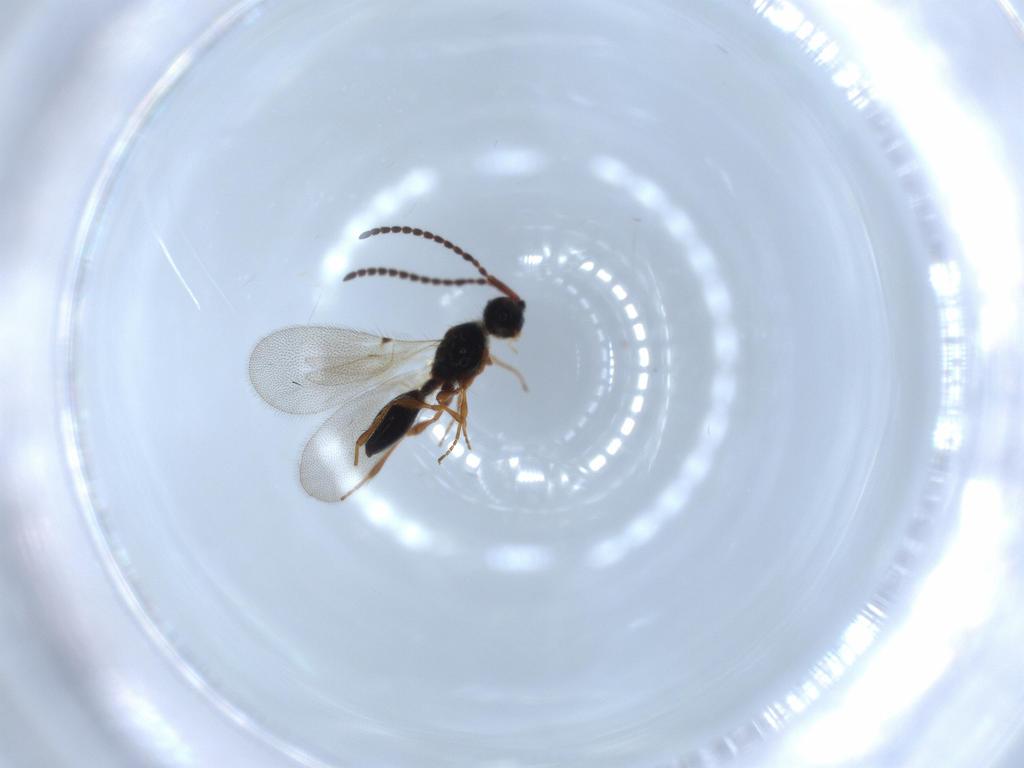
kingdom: Animalia
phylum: Arthropoda
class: Insecta
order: Hymenoptera
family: Diapriidae
